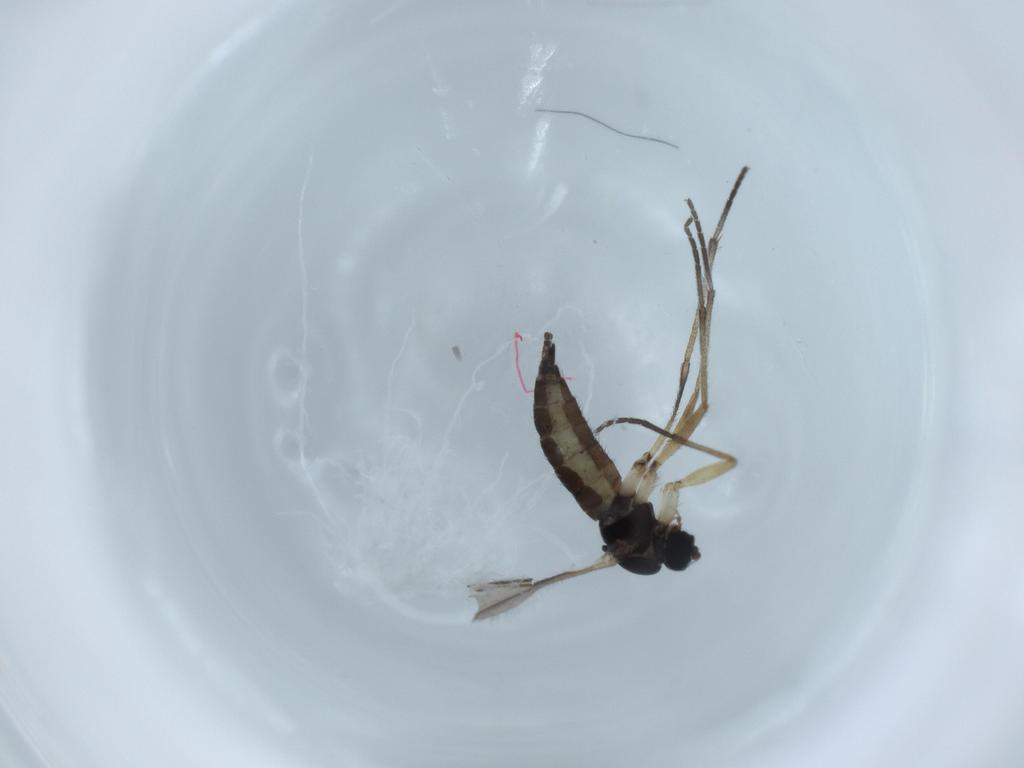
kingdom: Animalia
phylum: Arthropoda
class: Insecta
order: Diptera
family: Sciaridae
